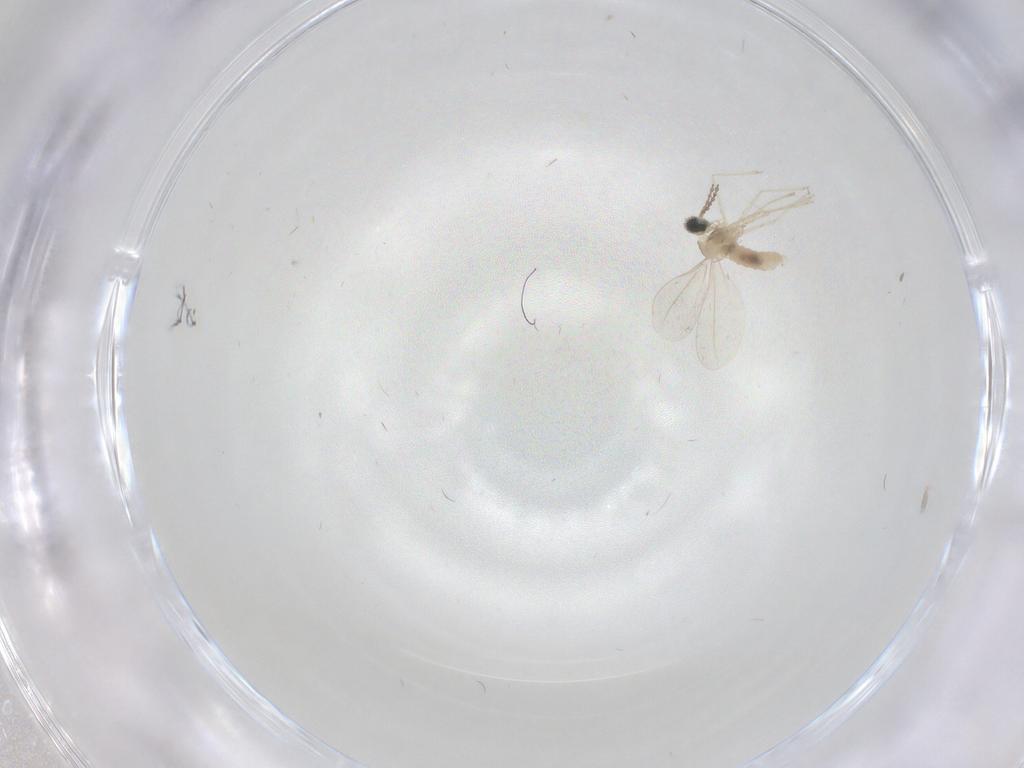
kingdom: Animalia
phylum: Arthropoda
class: Insecta
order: Diptera
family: Cecidomyiidae
